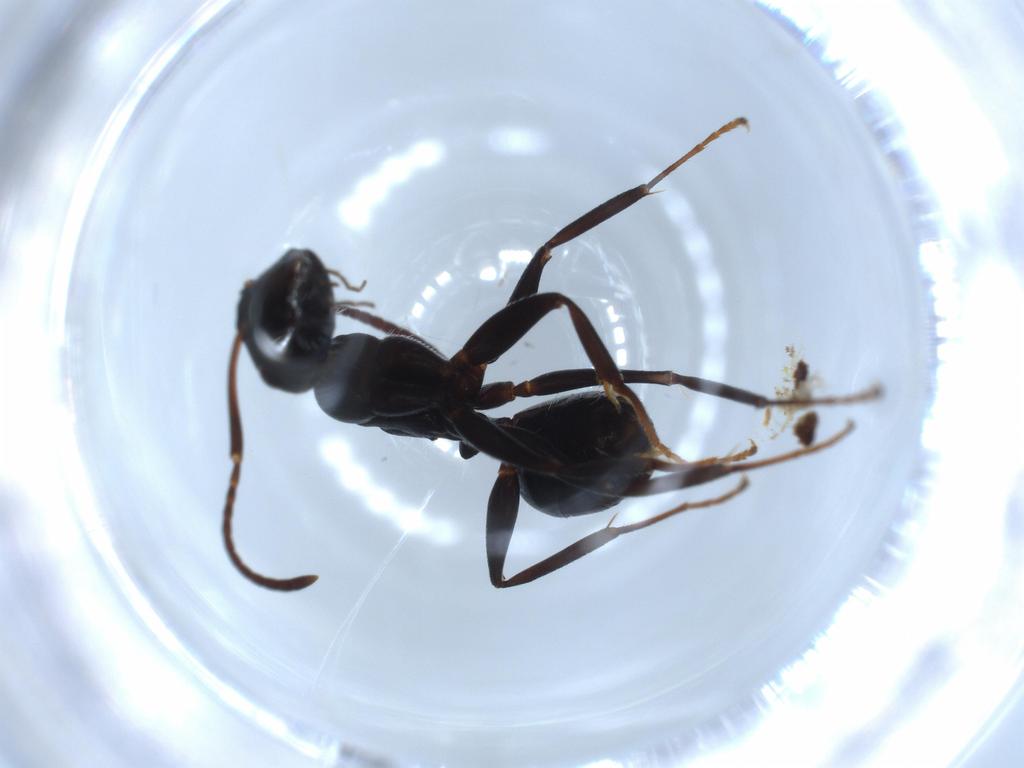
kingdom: Animalia
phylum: Arthropoda
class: Insecta
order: Hymenoptera
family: Formicidae
